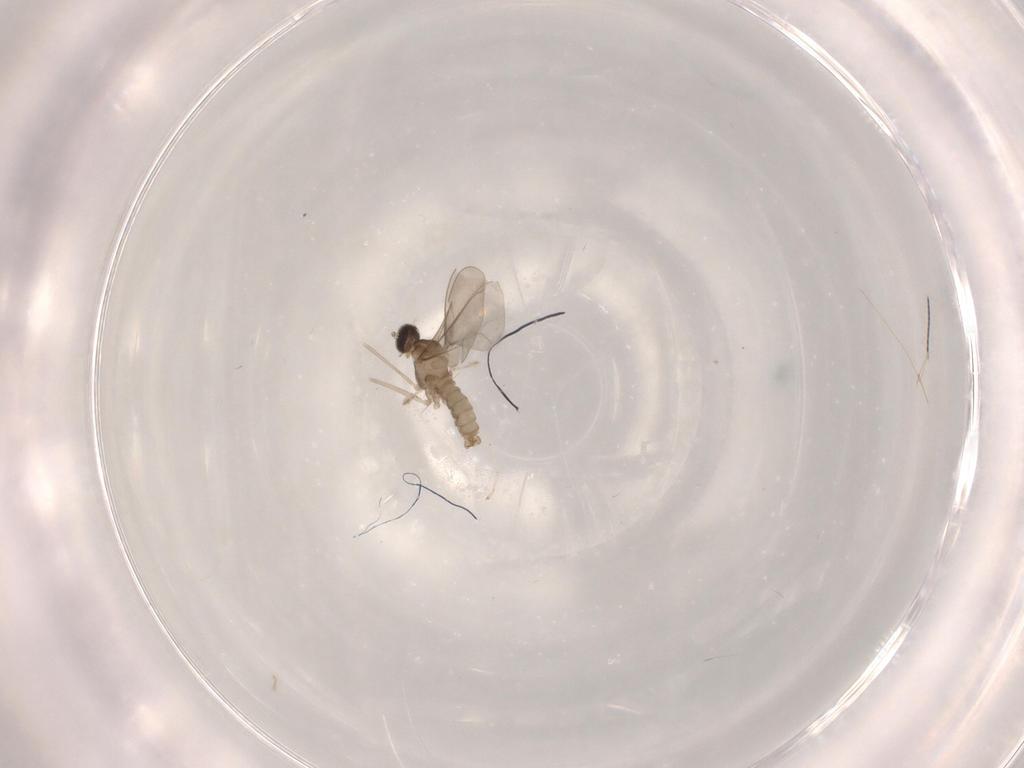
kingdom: Animalia
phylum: Arthropoda
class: Insecta
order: Diptera
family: Cecidomyiidae
